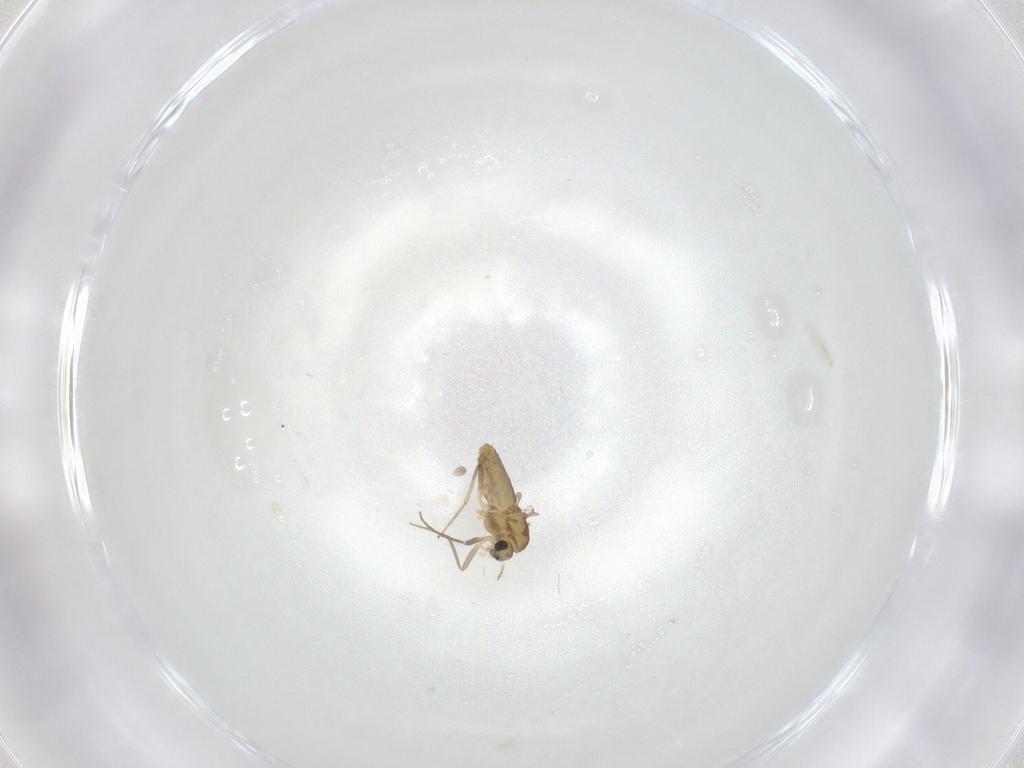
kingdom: Animalia
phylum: Arthropoda
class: Insecta
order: Diptera
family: Chironomidae
